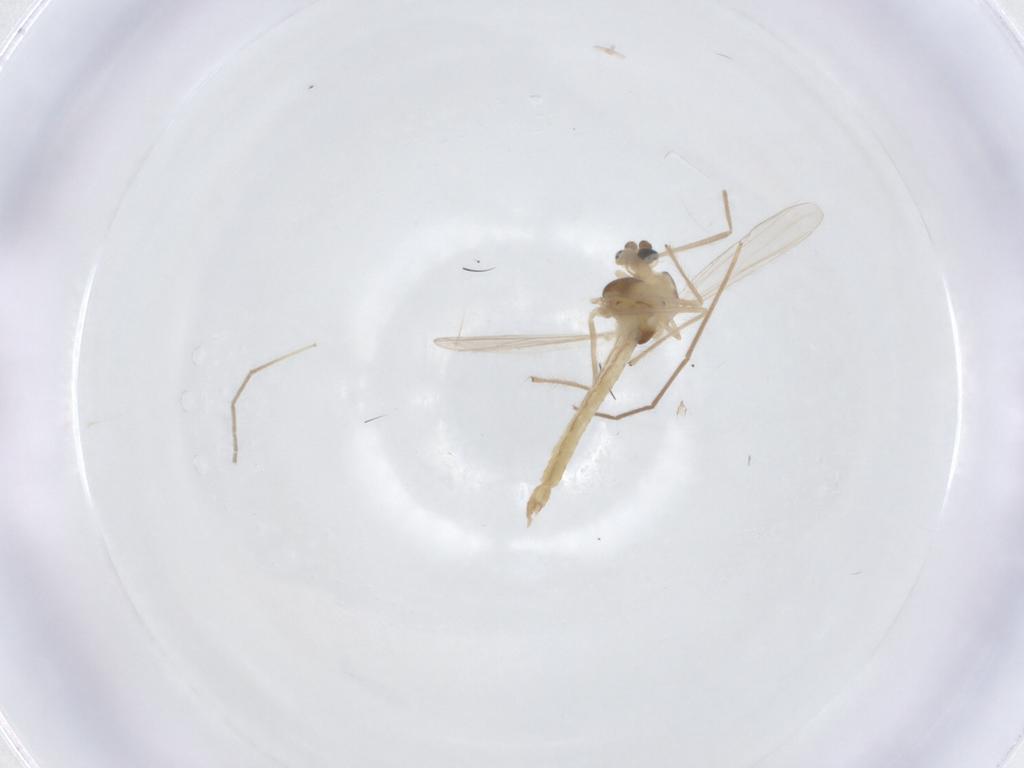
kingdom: Animalia
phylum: Arthropoda
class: Insecta
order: Diptera
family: Chironomidae
